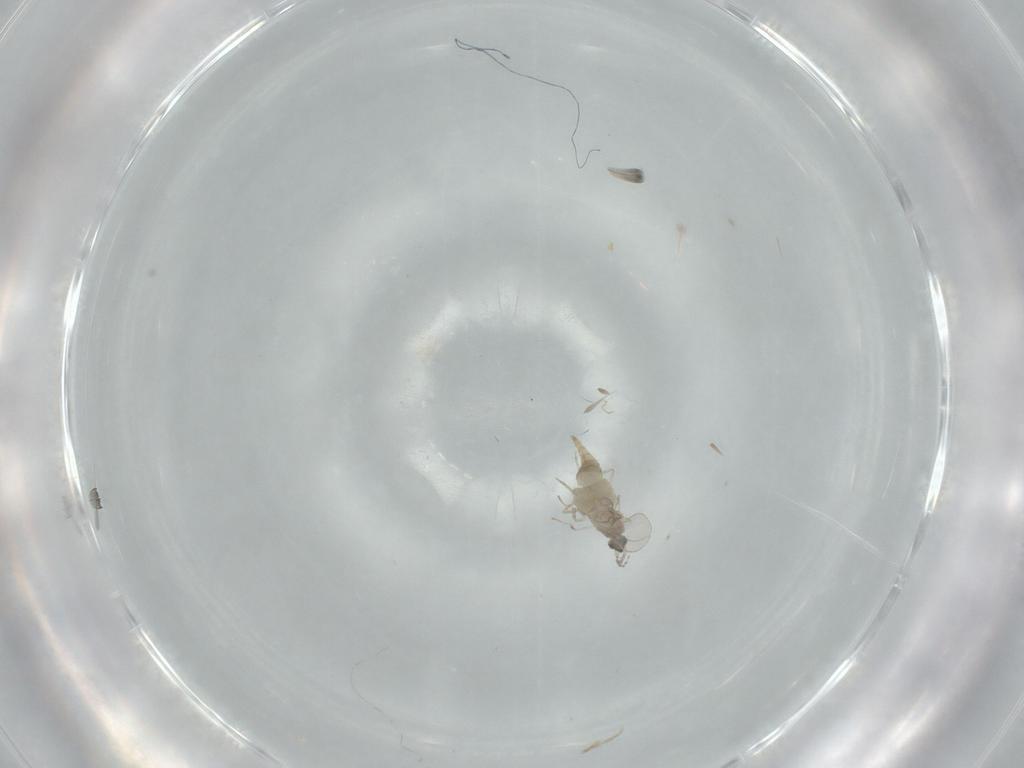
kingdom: Animalia
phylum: Arthropoda
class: Insecta
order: Diptera
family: Cecidomyiidae
